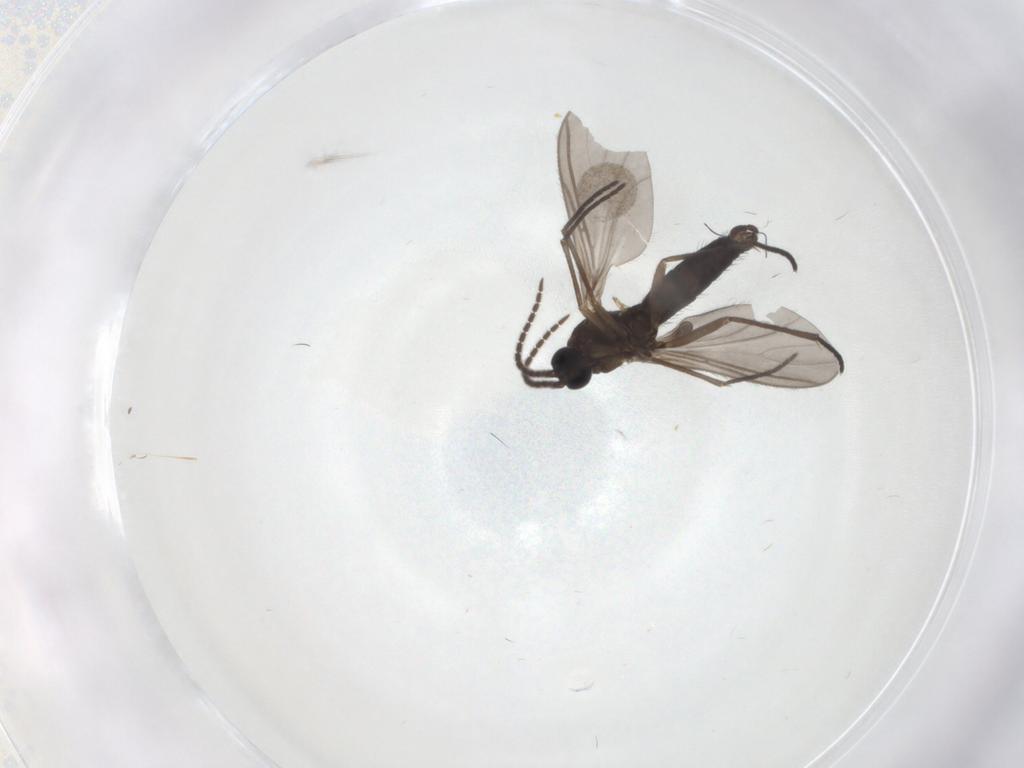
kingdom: Animalia
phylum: Arthropoda
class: Insecta
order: Diptera
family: Sciaridae
